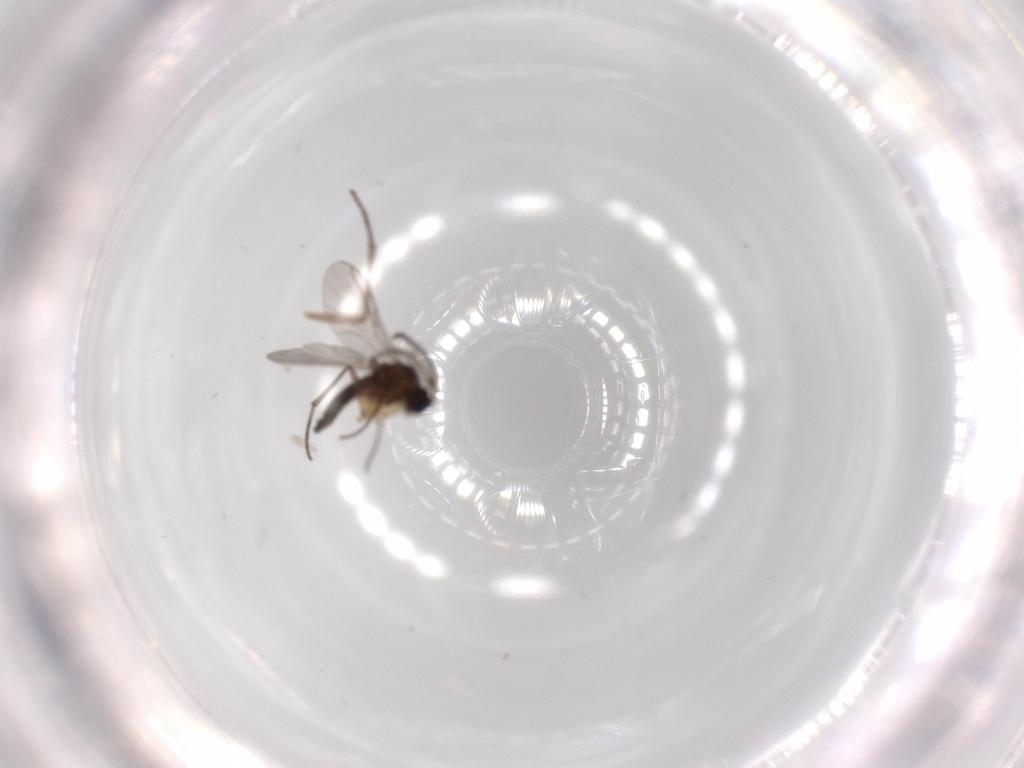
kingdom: Animalia
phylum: Arthropoda
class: Insecta
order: Diptera
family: Sciaridae
